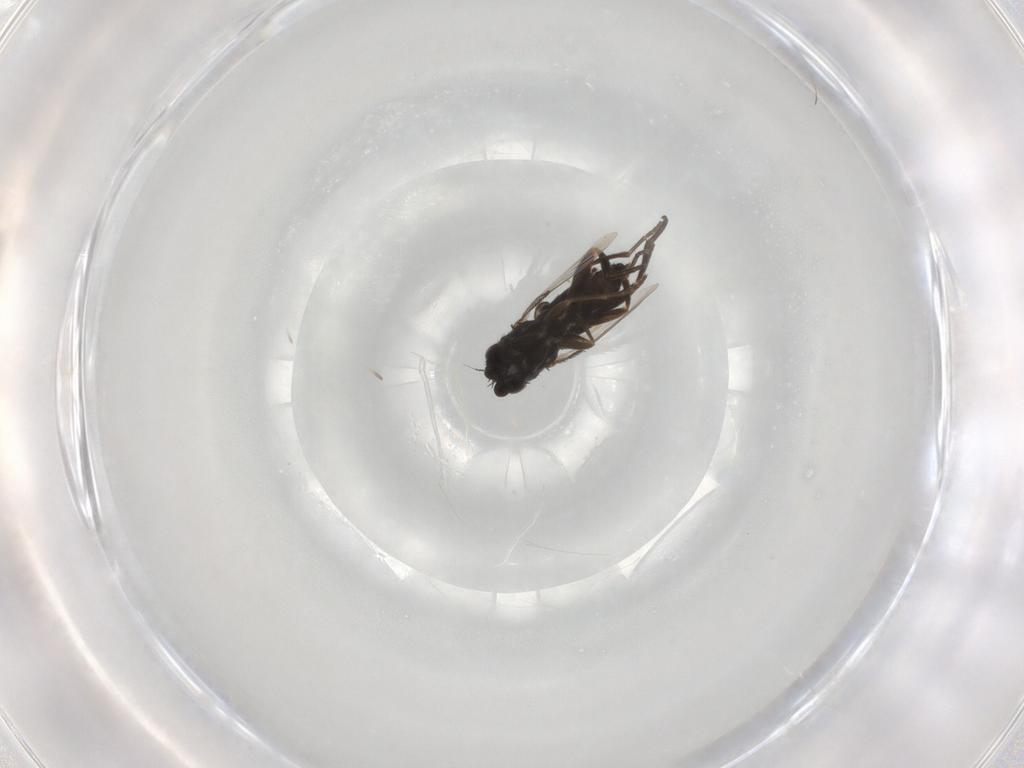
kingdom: Animalia
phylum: Arthropoda
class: Insecta
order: Diptera
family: Phoridae
